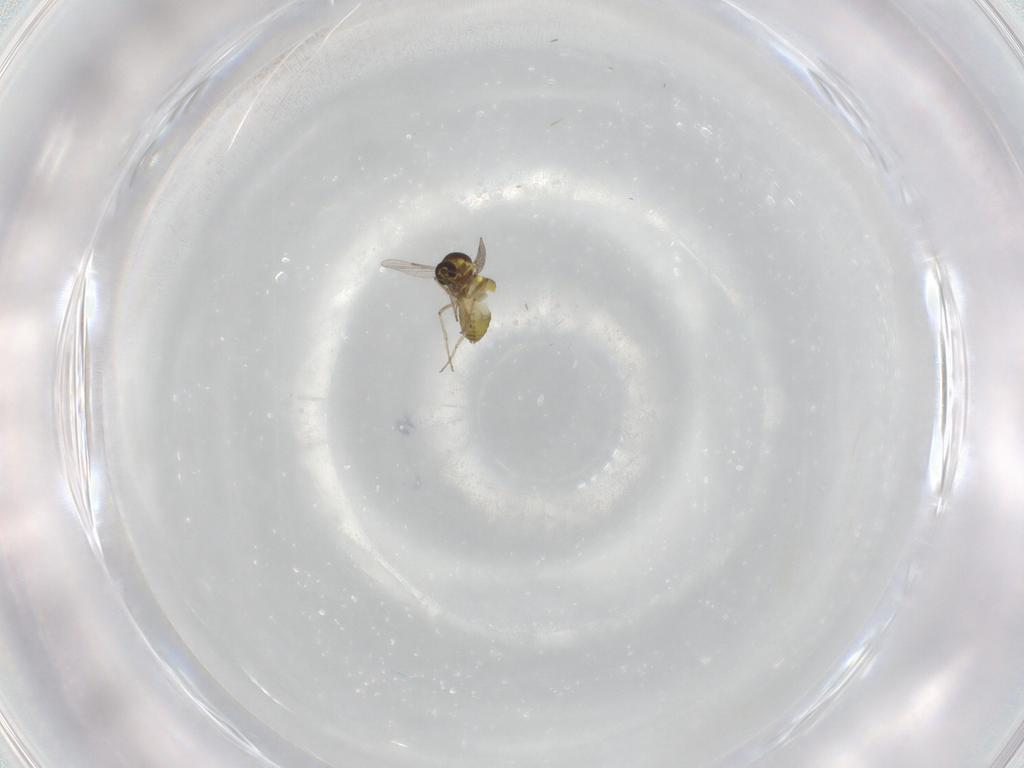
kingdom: Animalia
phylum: Arthropoda
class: Insecta
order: Diptera
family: Ceratopogonidae
